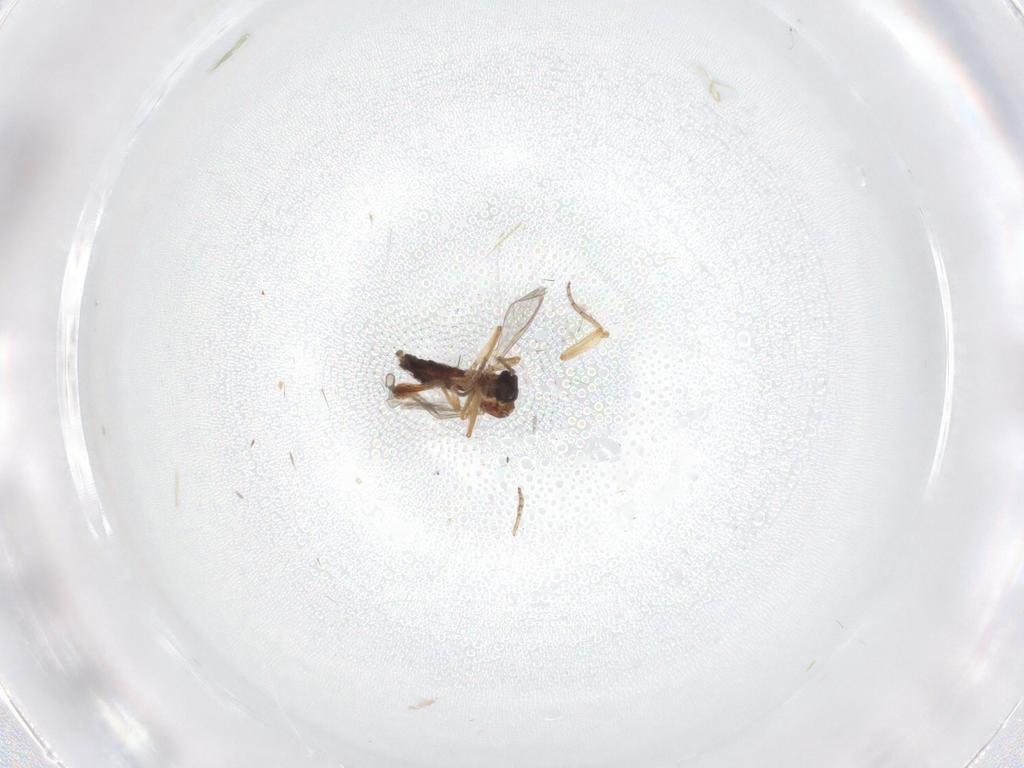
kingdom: Animalia
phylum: Arthropoda
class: Insecta
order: Diptera
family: Ceratopogonidae
